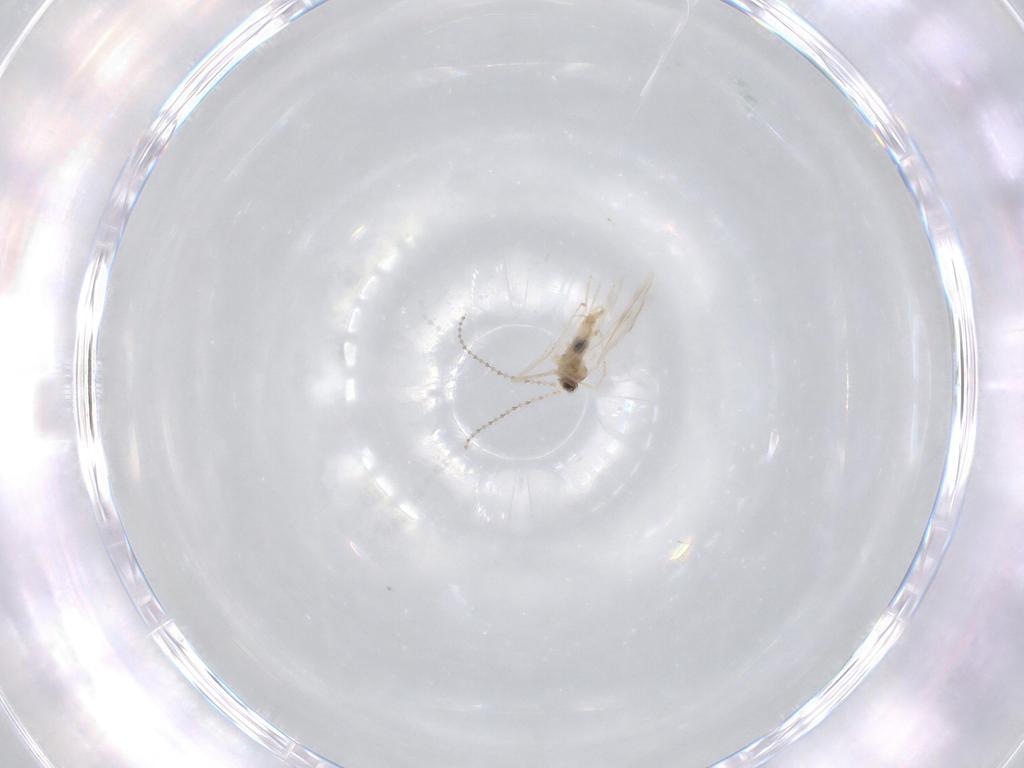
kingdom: Animalia
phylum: Arthropoda
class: Insecta
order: Diptera
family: Cecidomyiidae
